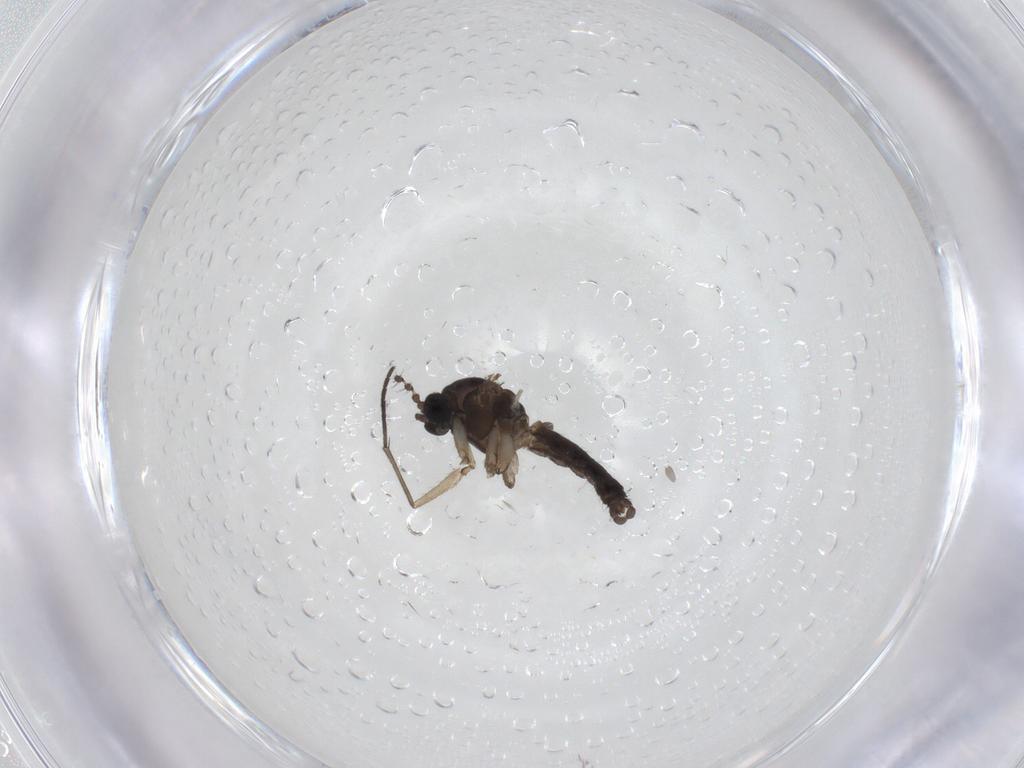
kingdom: Animalia
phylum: Arthropoda
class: Insecta
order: Diptera
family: Sciaridae
